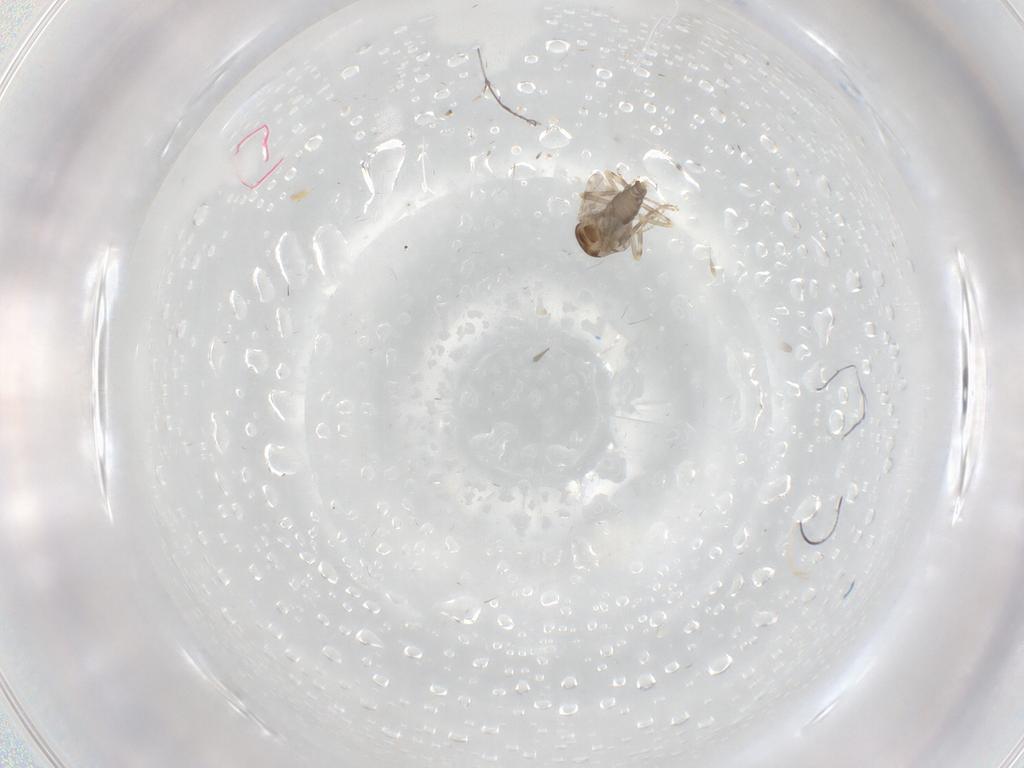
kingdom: Animalia
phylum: Arthropoda
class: Insecta
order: Diptera
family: Ceratopogonidae
